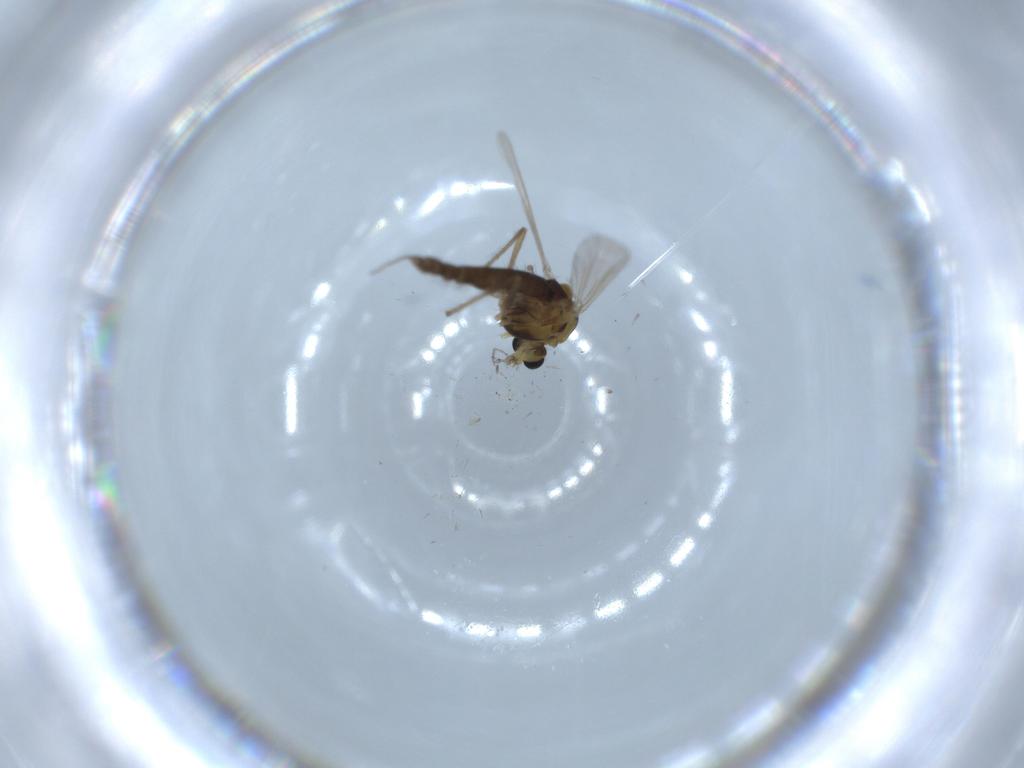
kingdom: Animalia
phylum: Arthropoda
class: Insecta
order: Diptera
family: Chironomidae
